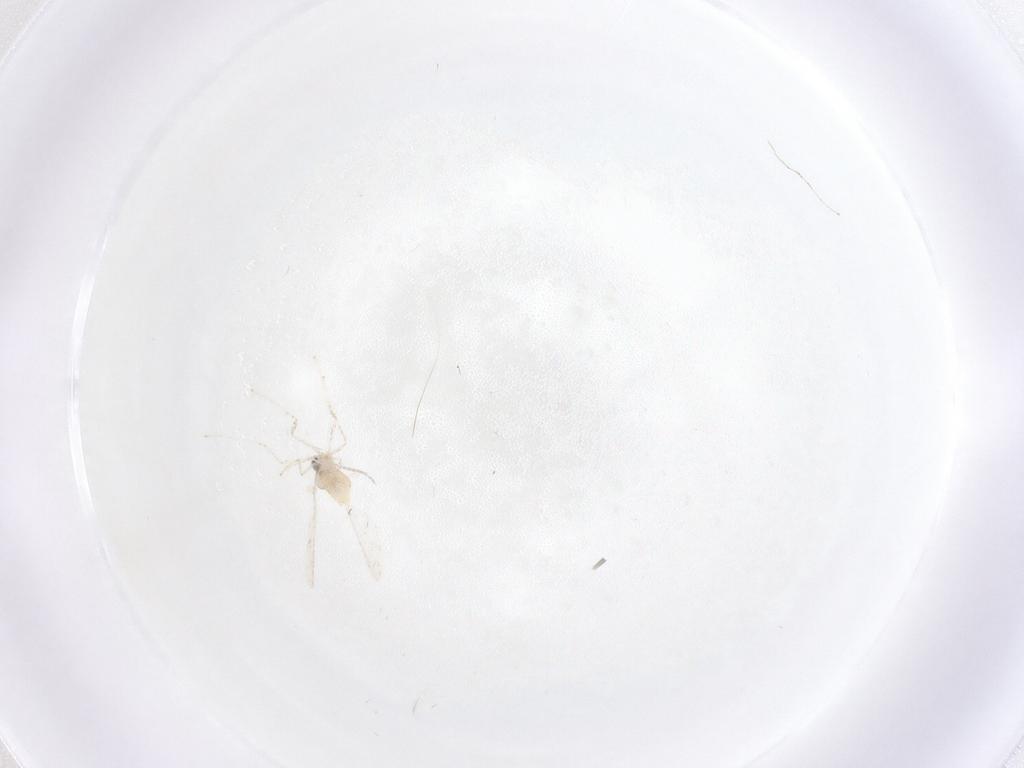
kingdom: Animalia
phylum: Arthropoda
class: Insecta
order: Diptera
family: Cecidomyiidae
